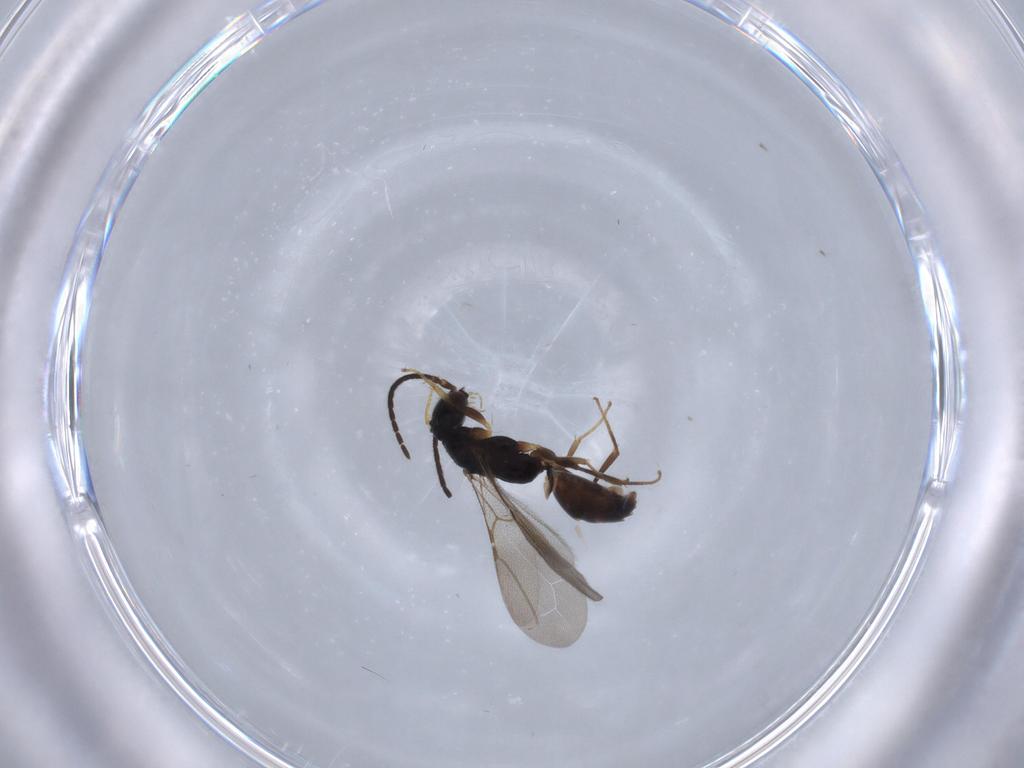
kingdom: Animalia
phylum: Arthropoda
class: Insecta
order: Hymenoptera
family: Bethylidae
